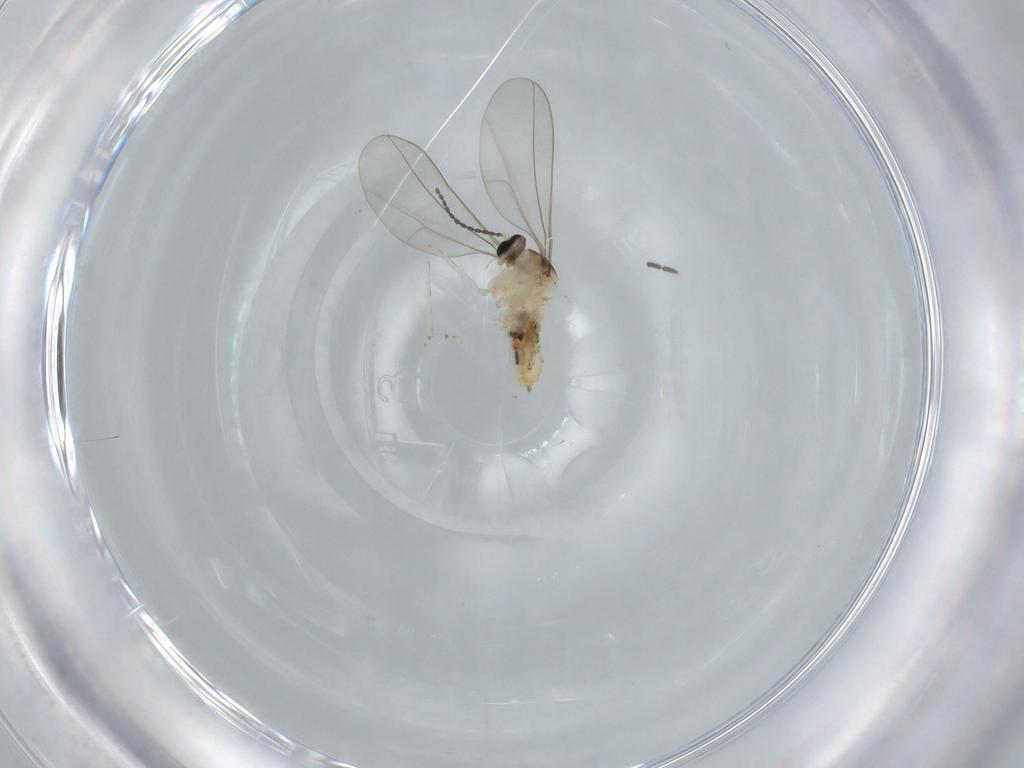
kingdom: Animalia
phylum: Arthropoda
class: Insecta
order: Diptera
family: Cecidomyiidae
